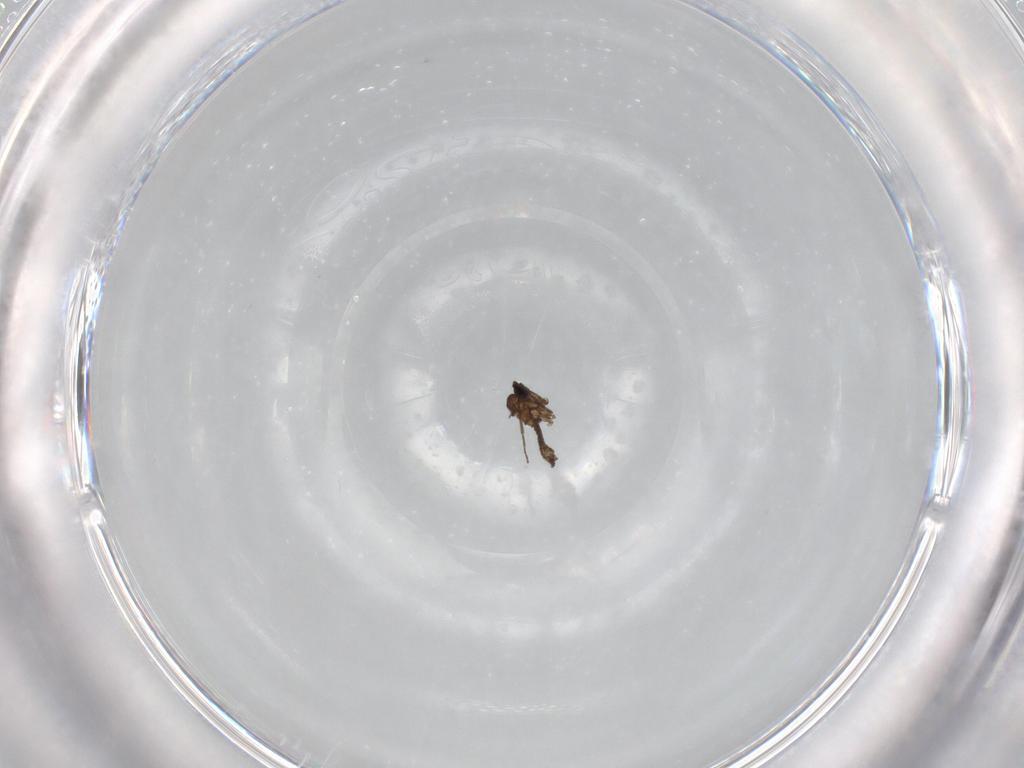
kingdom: Animalia
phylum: Arthropoda
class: Insecta
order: Diptera
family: Sciaridae
